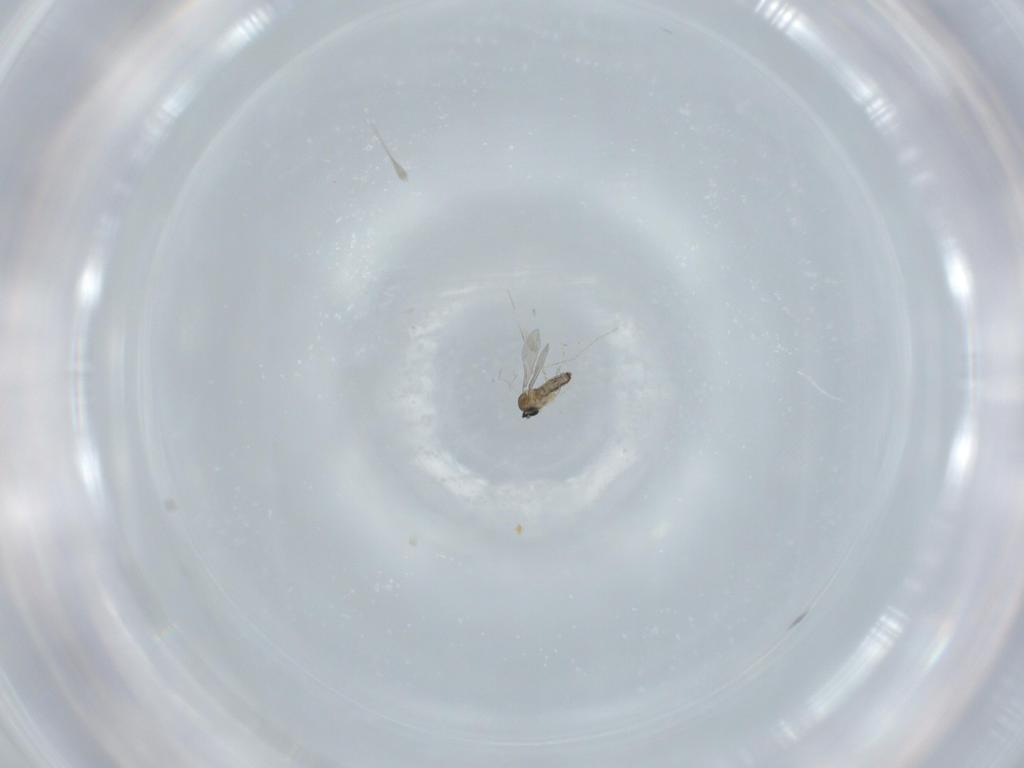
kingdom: Animalia
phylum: Arthropoda
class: Insecta
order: Diptera
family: Cecidomyiidae
